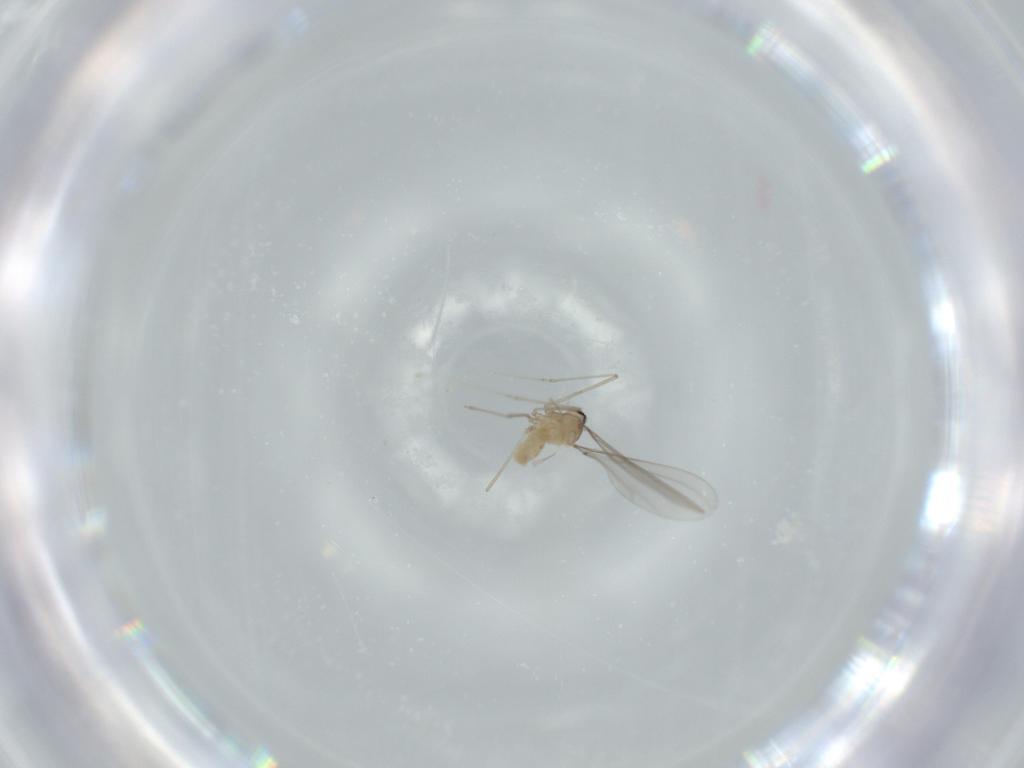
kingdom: Animalia
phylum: Arthropoda
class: Insecta
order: Diptera
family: Cecidomyiidae
